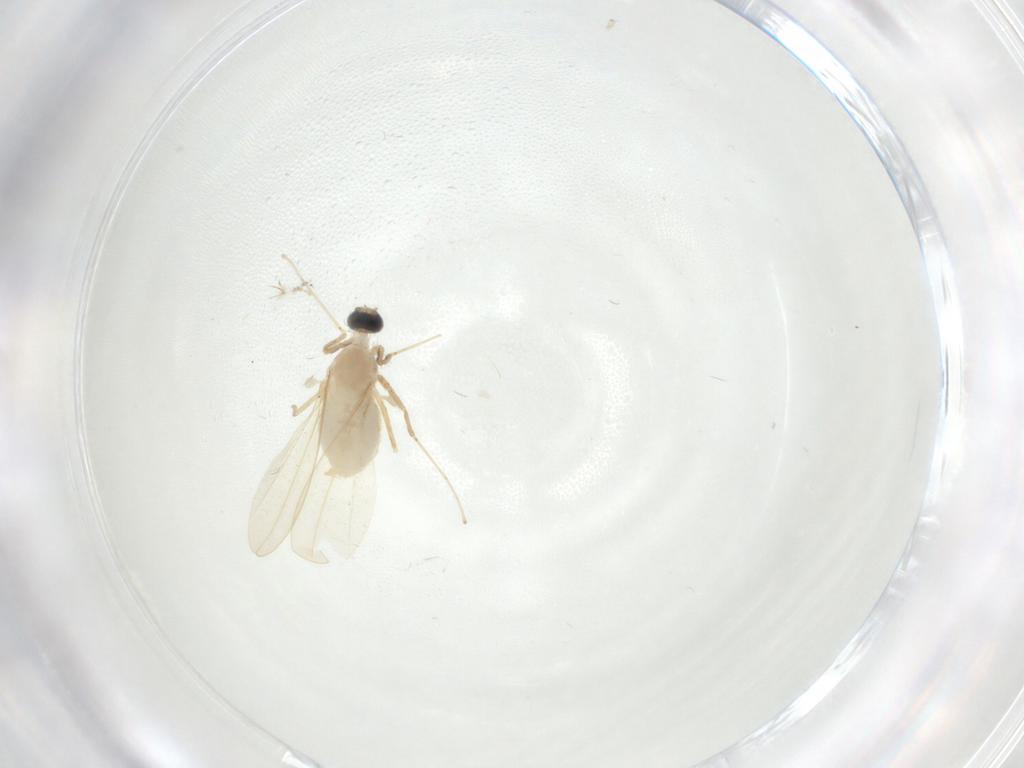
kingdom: Animalia
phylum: Arthropoda
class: Insecta
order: Diptera
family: Cecidomyiidae
